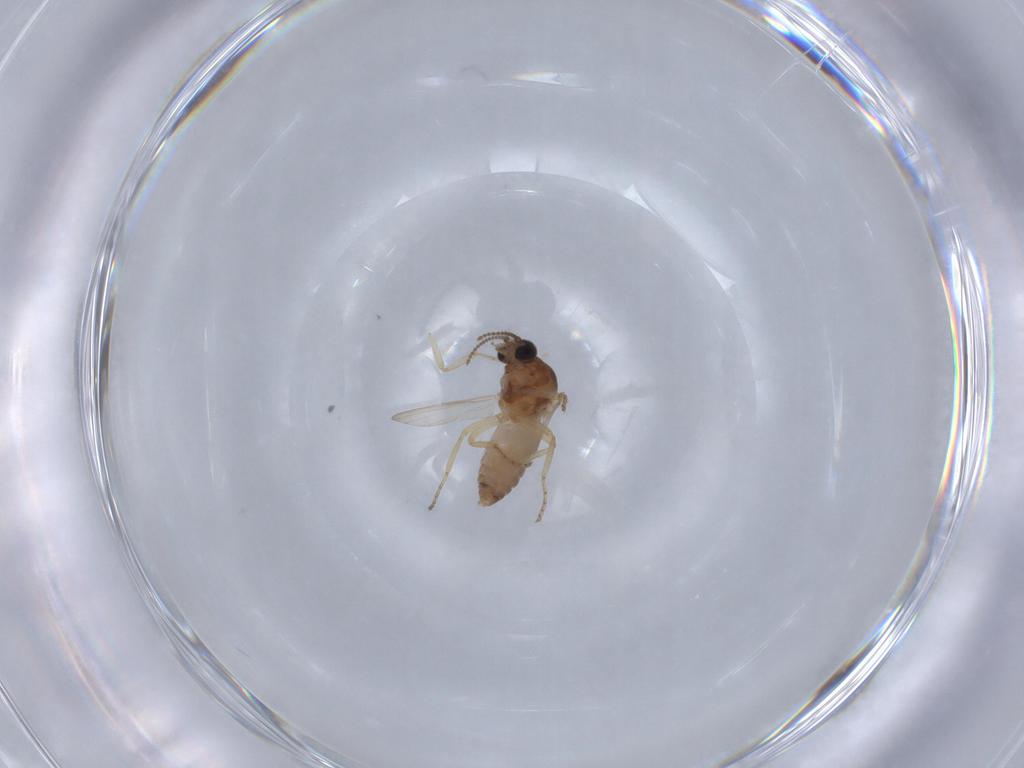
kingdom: Animalia
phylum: Arthropoda
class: Insecta
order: Diptera
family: Ceratopogonidae
